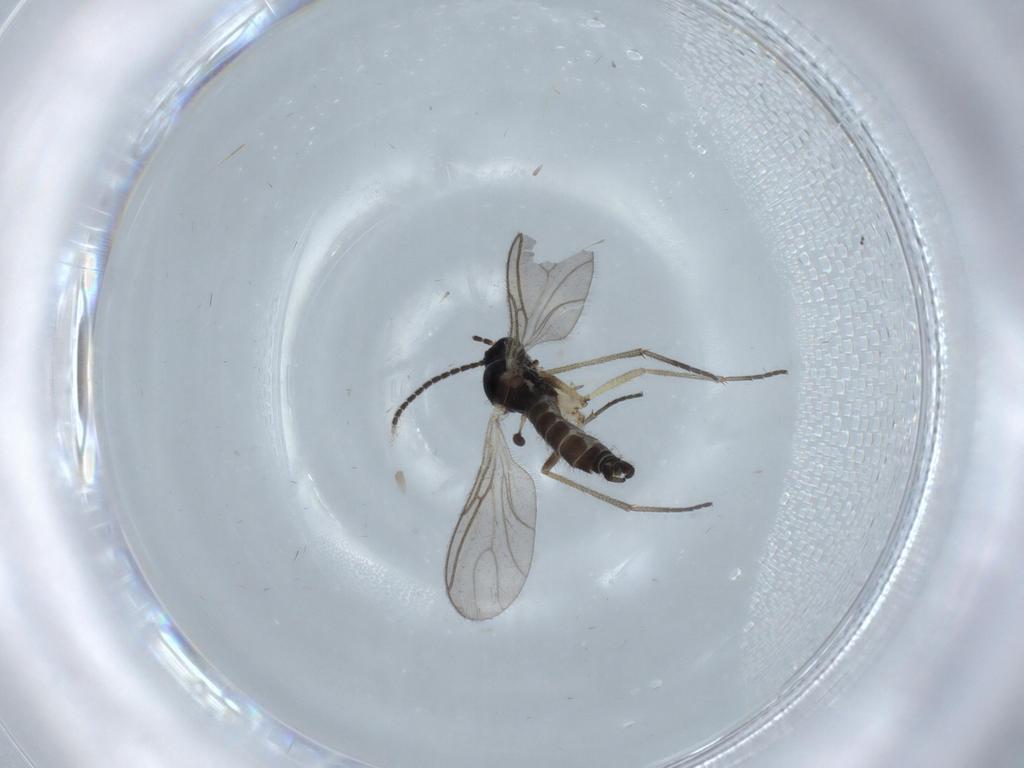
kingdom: Animalia
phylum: Arthropoda
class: Insecta
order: Diptera
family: Sciaridae
